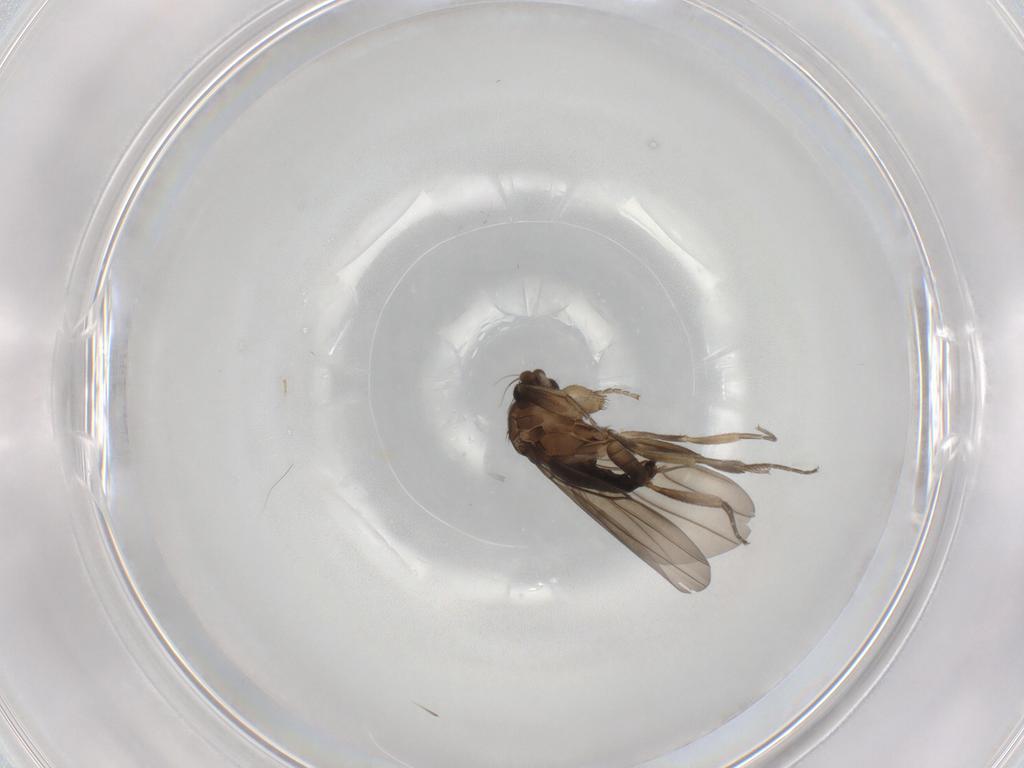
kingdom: Animalia
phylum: Arthropoda
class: Insecta
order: Diptera
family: Phoridae
